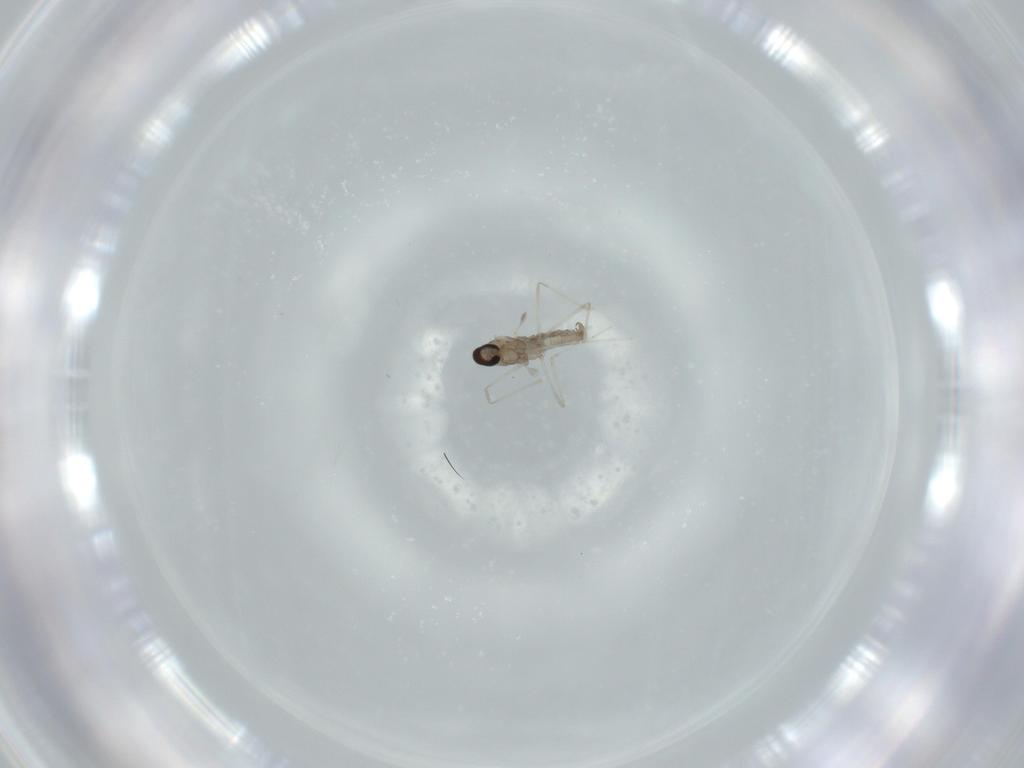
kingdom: Animalia
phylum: Arthropoda
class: Insecta
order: Diptera
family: Cecidomyiidae
